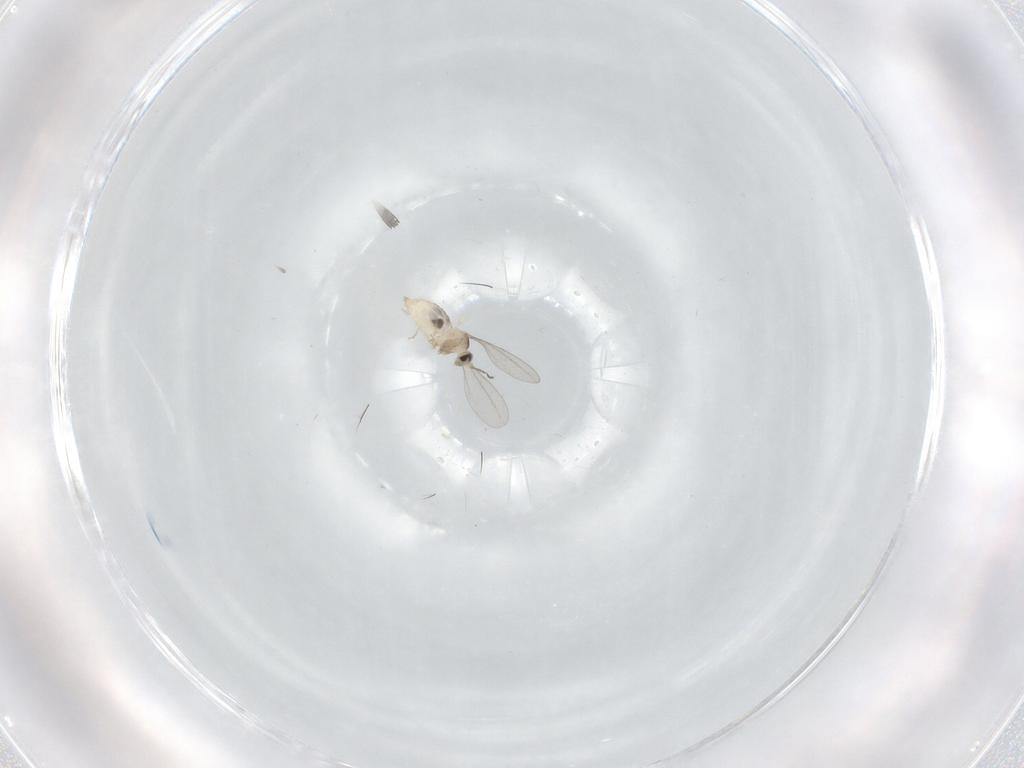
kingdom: Animalia
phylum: Arthropoda
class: Insecta
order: Diptera
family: Cecidomyiidae
